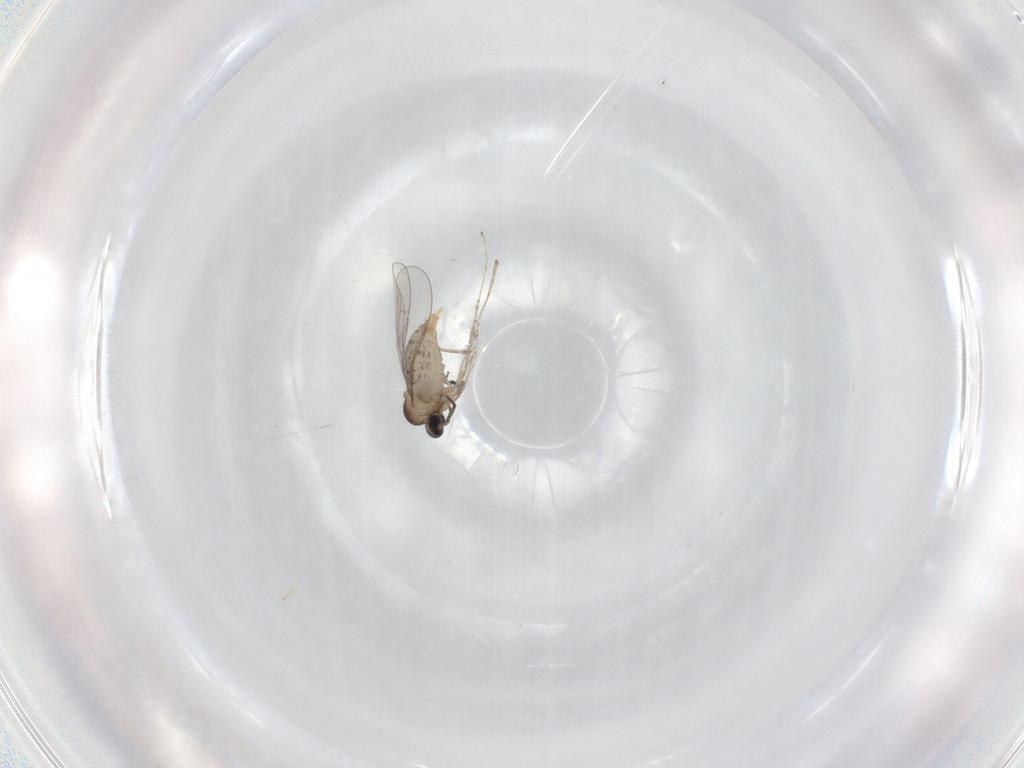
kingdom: Animalia
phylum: Arthropoda
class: Insecta
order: Diptera
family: Cecidomyiidae
